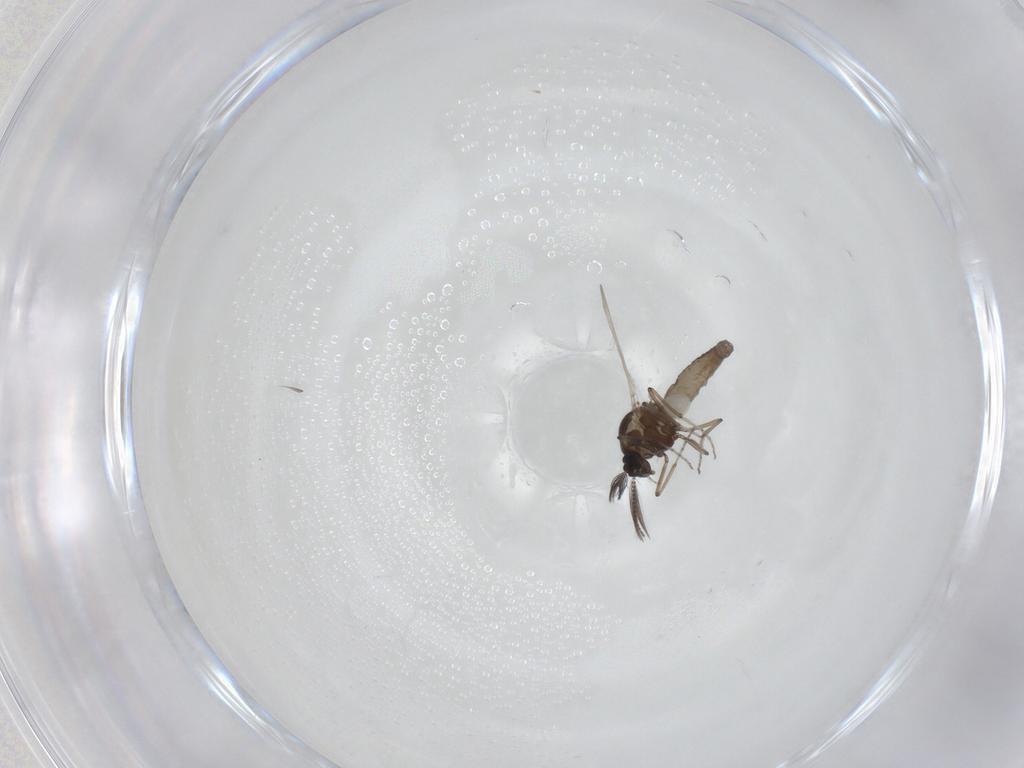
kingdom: Animalia
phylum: Arthropoda
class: Insecta
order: Diptera
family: Ceratopogonidae
